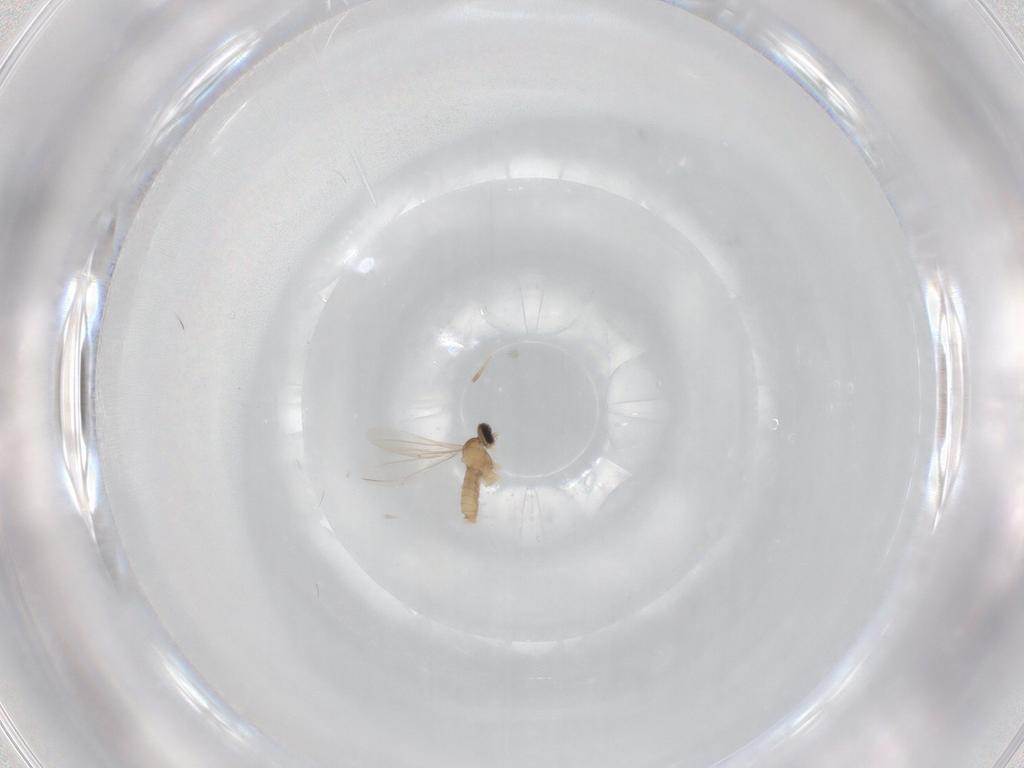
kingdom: Animalia
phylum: Arthropoda
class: Insecta
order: Diptera
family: Cecidomyiidae
